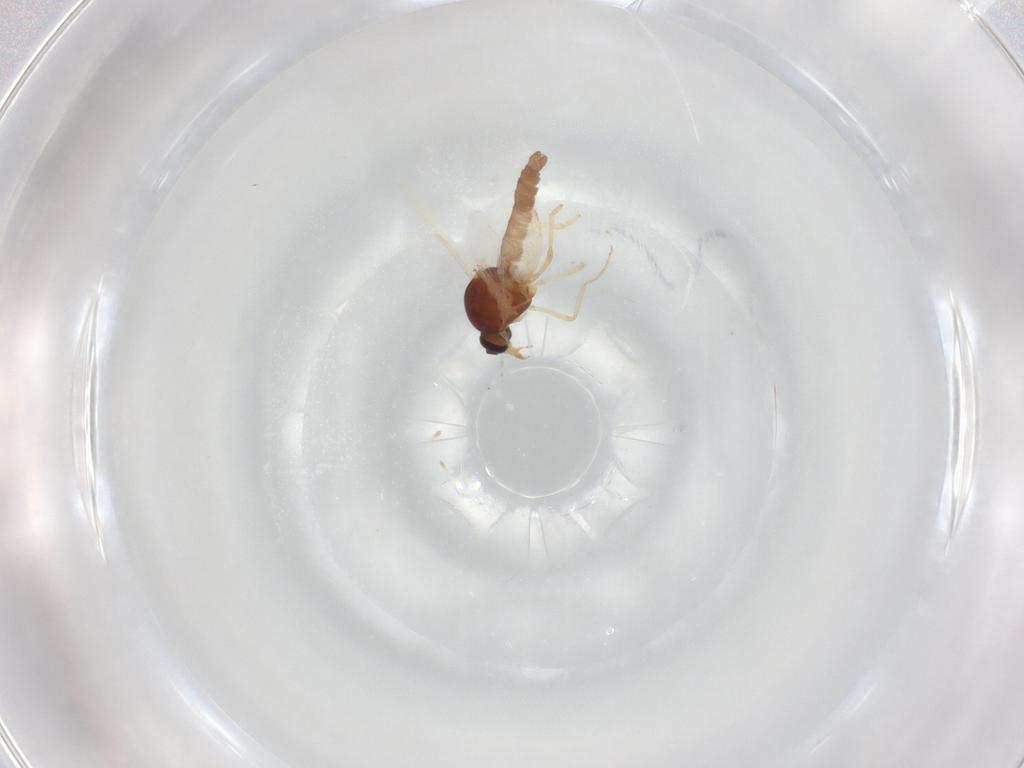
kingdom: Animalia
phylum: Arthropoda
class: Insecta
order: Diptera
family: Ceratopogonidae
